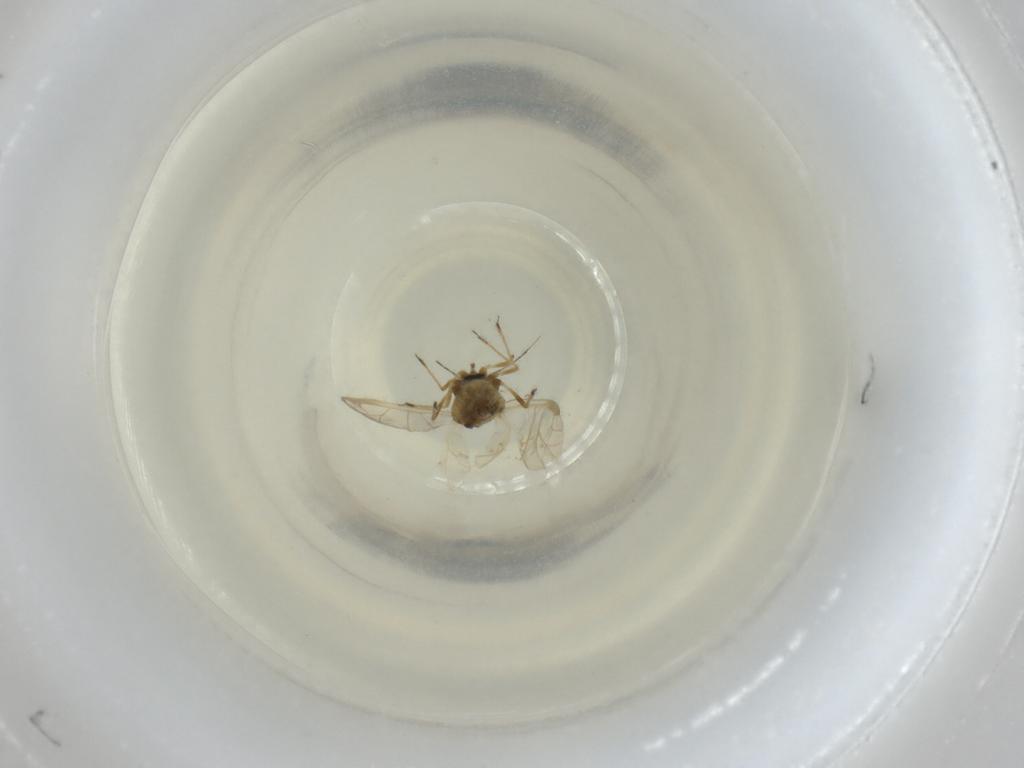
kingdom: Animalia
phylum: Arthropoda
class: Insecta
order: Hemiptera
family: Aphididae
